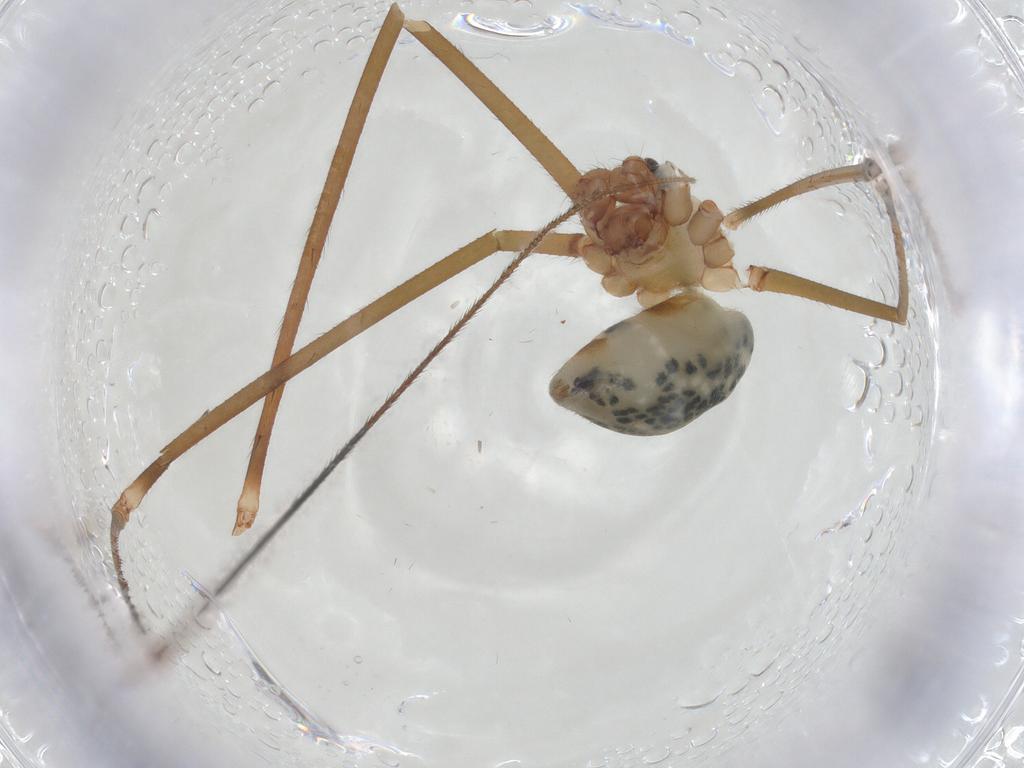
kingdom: Animalia
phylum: Arthropoda
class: Arachnida
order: Araneae
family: Pholcidae
